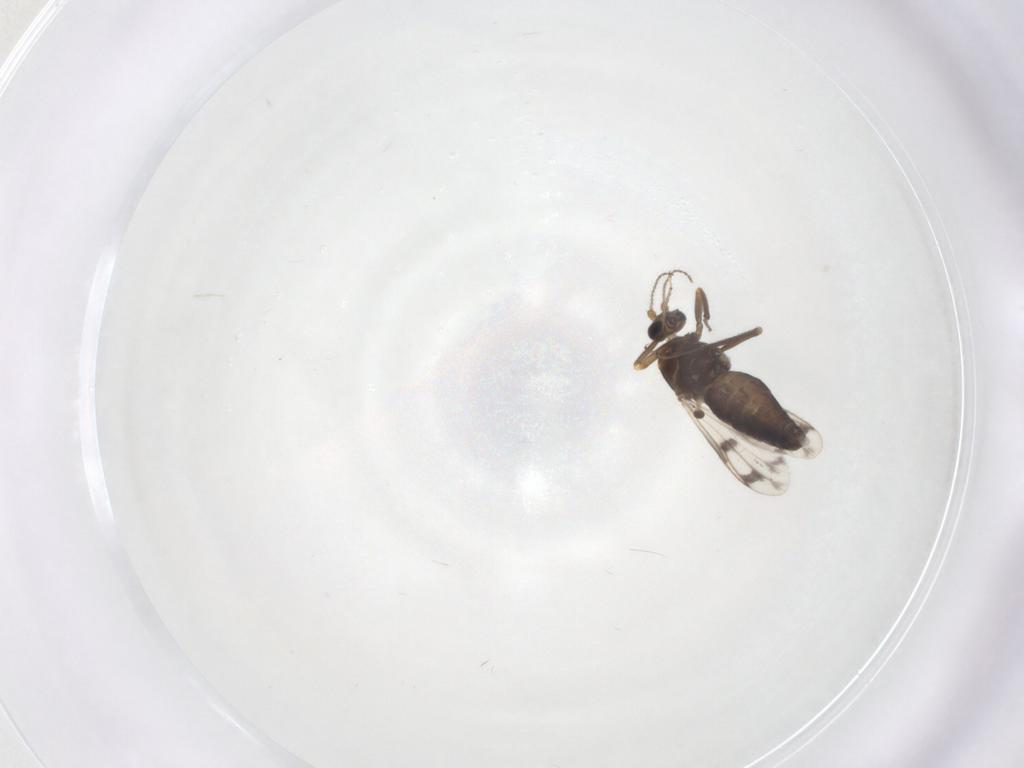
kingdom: Animalia
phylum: Arthropoda
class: Insecta
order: Diptera
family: Ceratopogonidae
